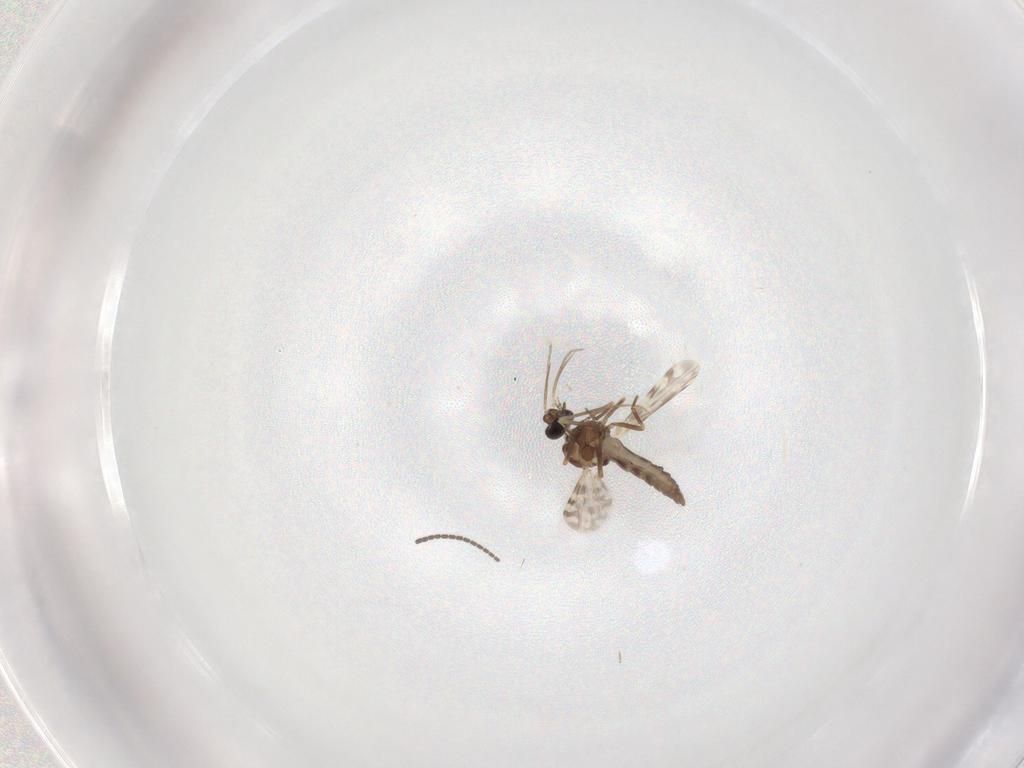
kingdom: Animalia
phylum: Arthropoda
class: Insecta
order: Diptera
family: Ceratopogonidae
